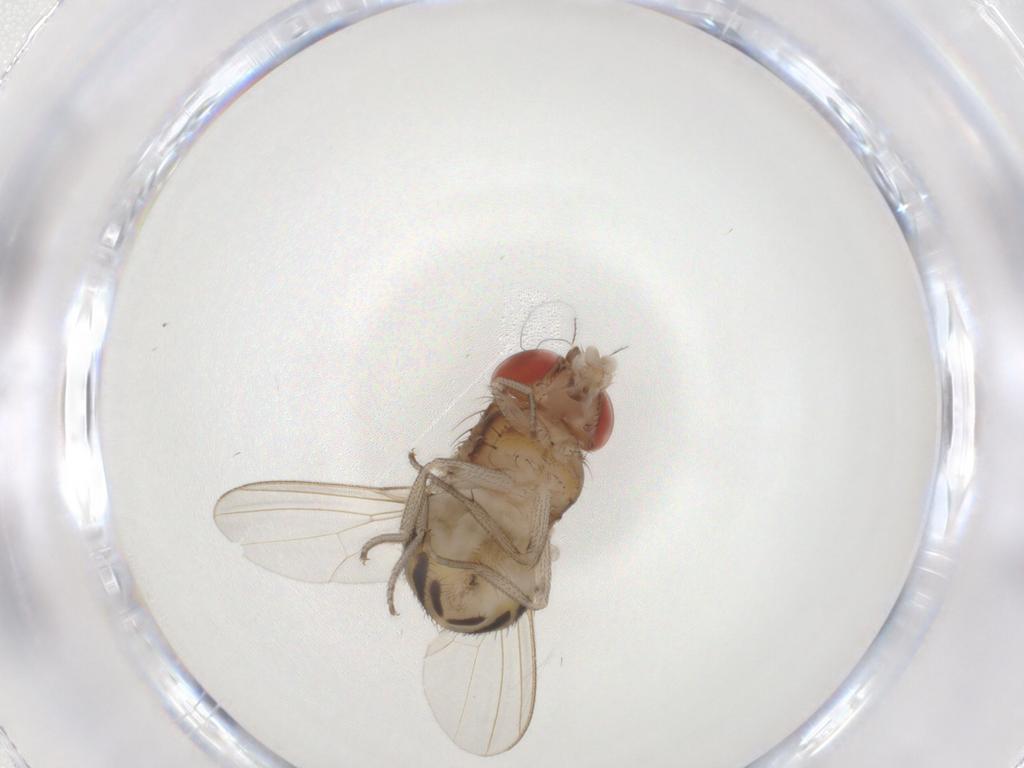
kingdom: Animalia
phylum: Arthropoda
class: Insecta
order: Diptera
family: Drosophilidae
